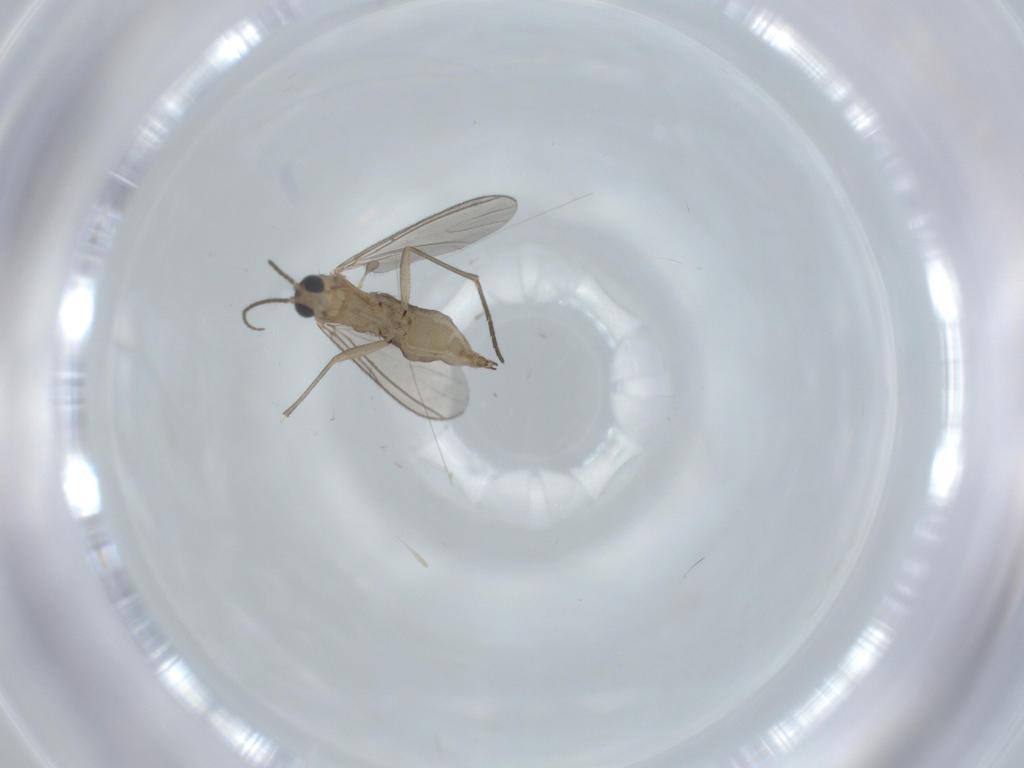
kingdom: Animalia
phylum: Arthropoda
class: Insecta
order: Diptera
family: Sciaridae
